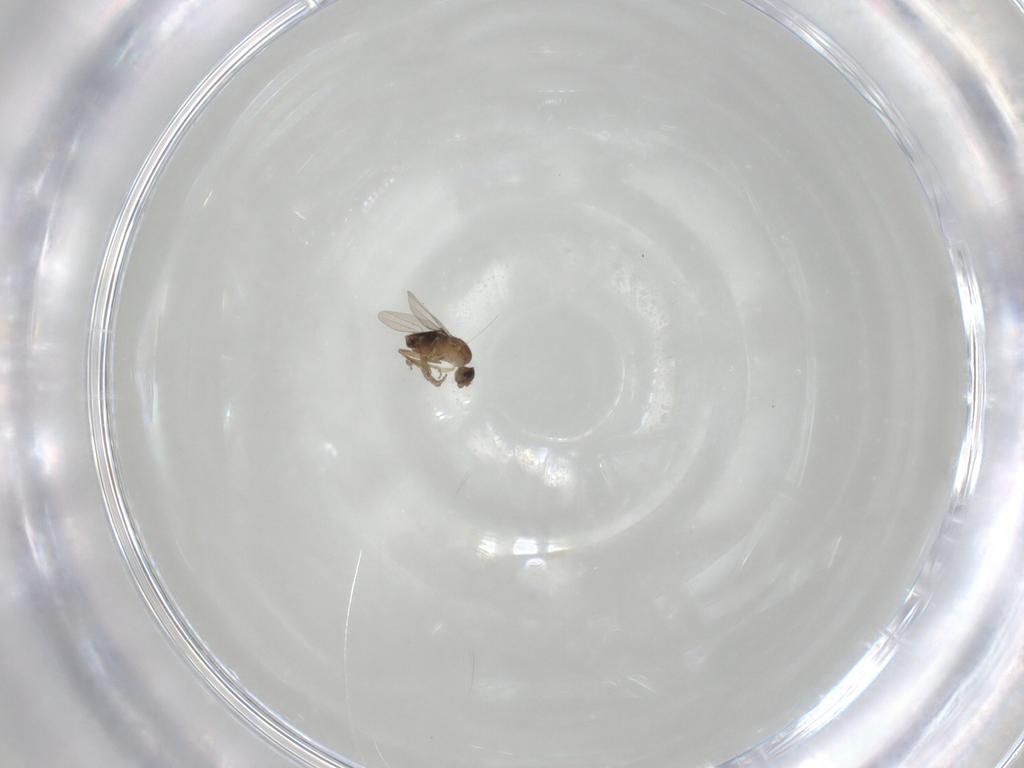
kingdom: Animalia
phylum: Arthropoda
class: Insecta
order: Diptera
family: Phoridae
